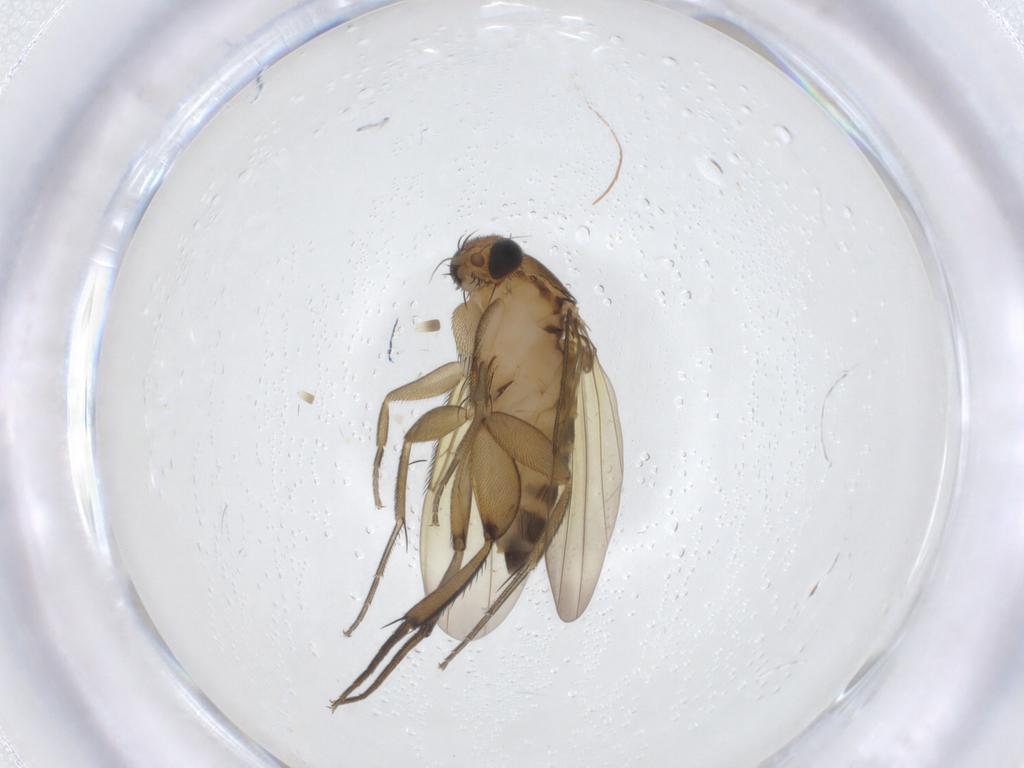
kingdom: Animalia
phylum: Arthropoda
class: Insecta
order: Diptera
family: Phoridae
